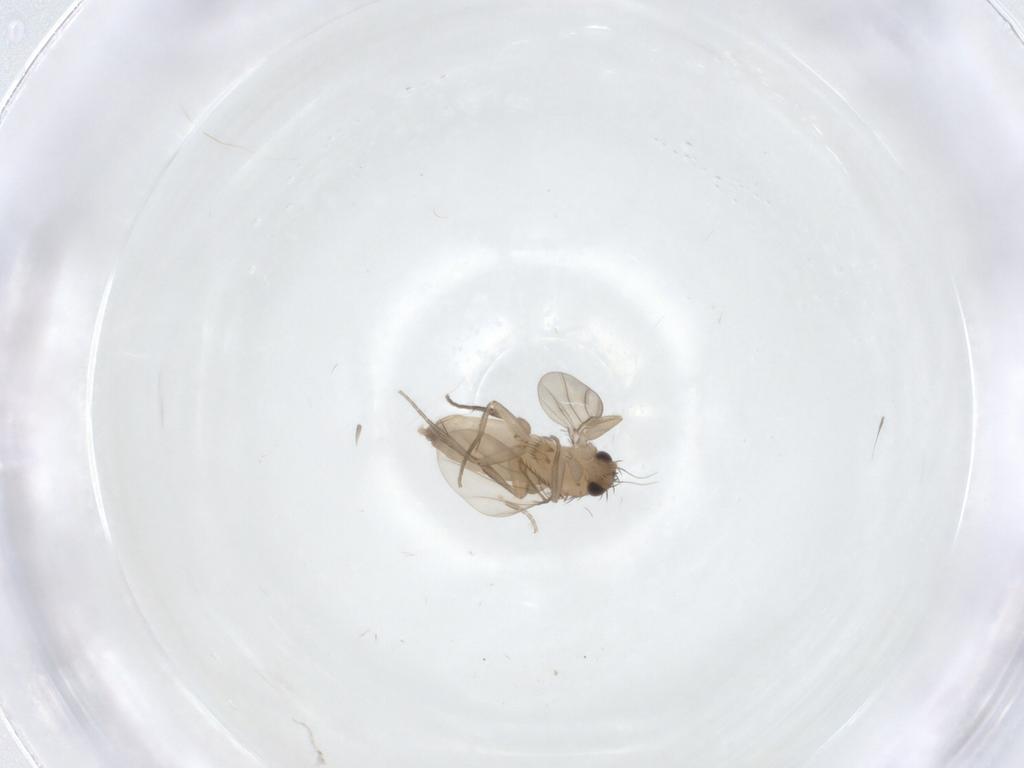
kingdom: Animalia
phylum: Arthropoda
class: Insecta
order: Diptera
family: Phoridae
